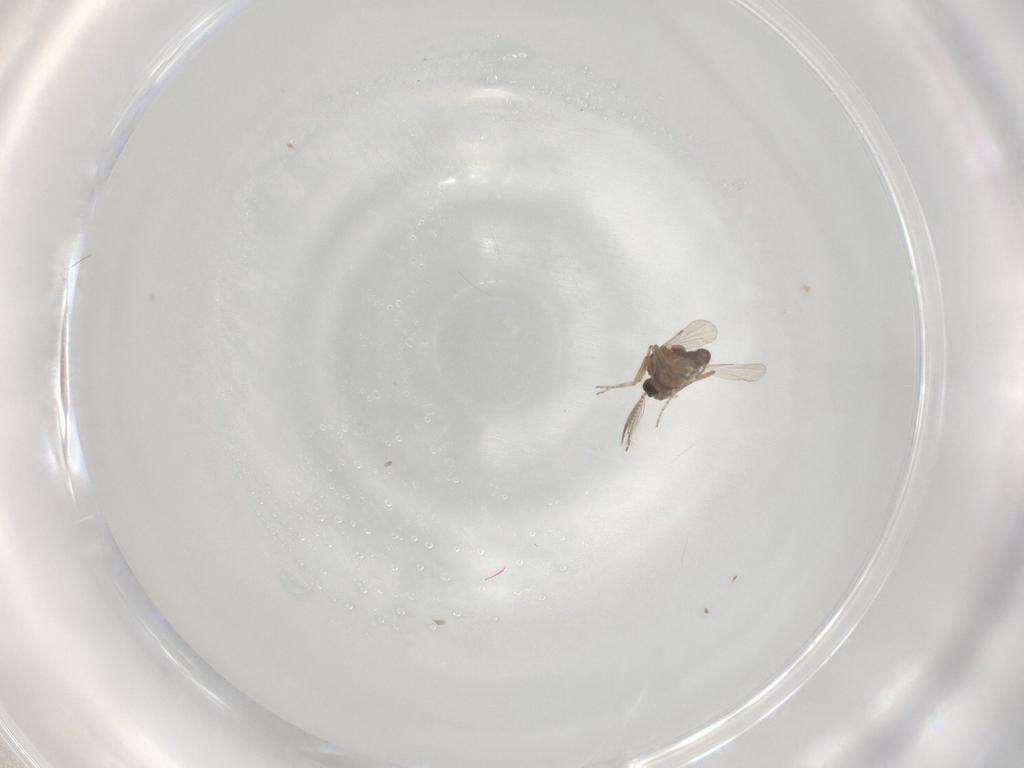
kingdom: Animalia
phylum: Arthropoda
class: Insecta
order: Diptera
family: Ceratopogonidae
